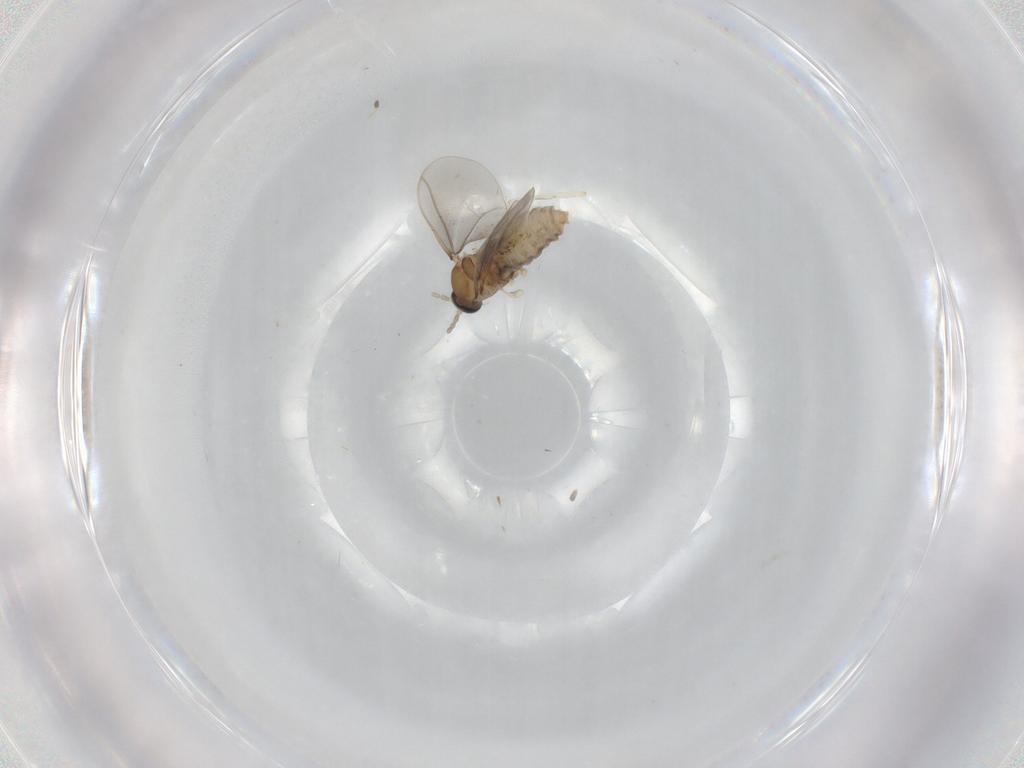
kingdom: Animalia
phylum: Arthropoda
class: Insecta
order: Diptera
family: Cecidomyiidae
